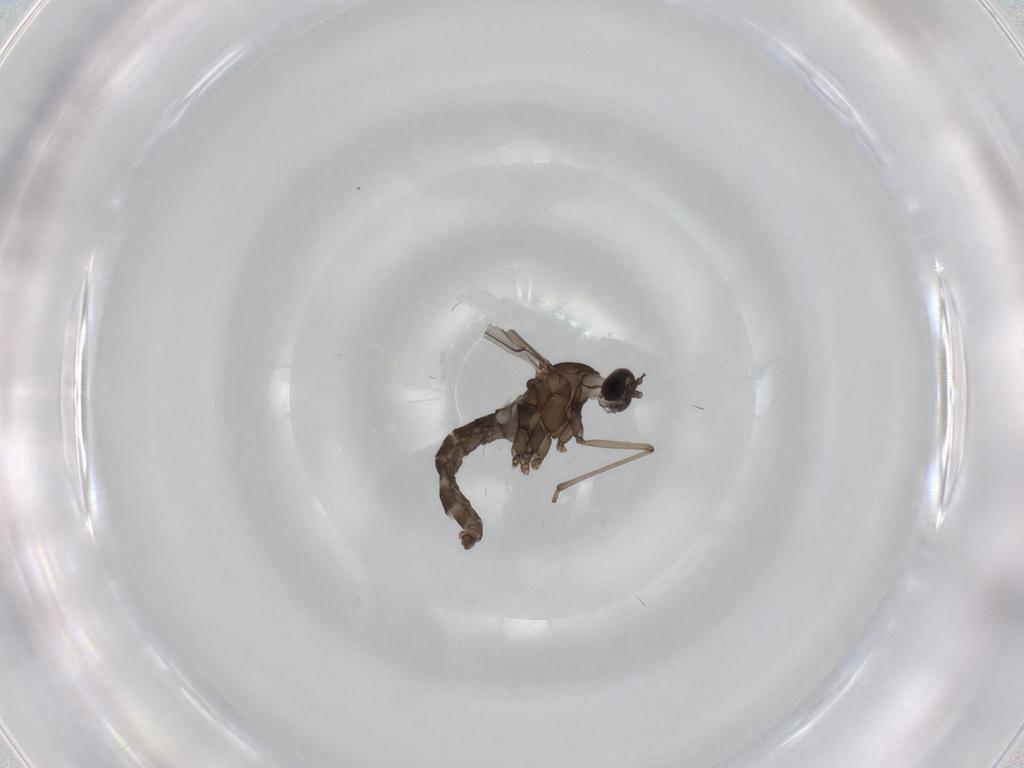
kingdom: Animalia
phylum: Arthropoda
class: Insecta
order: Diptera
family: Cecidomyiidae
